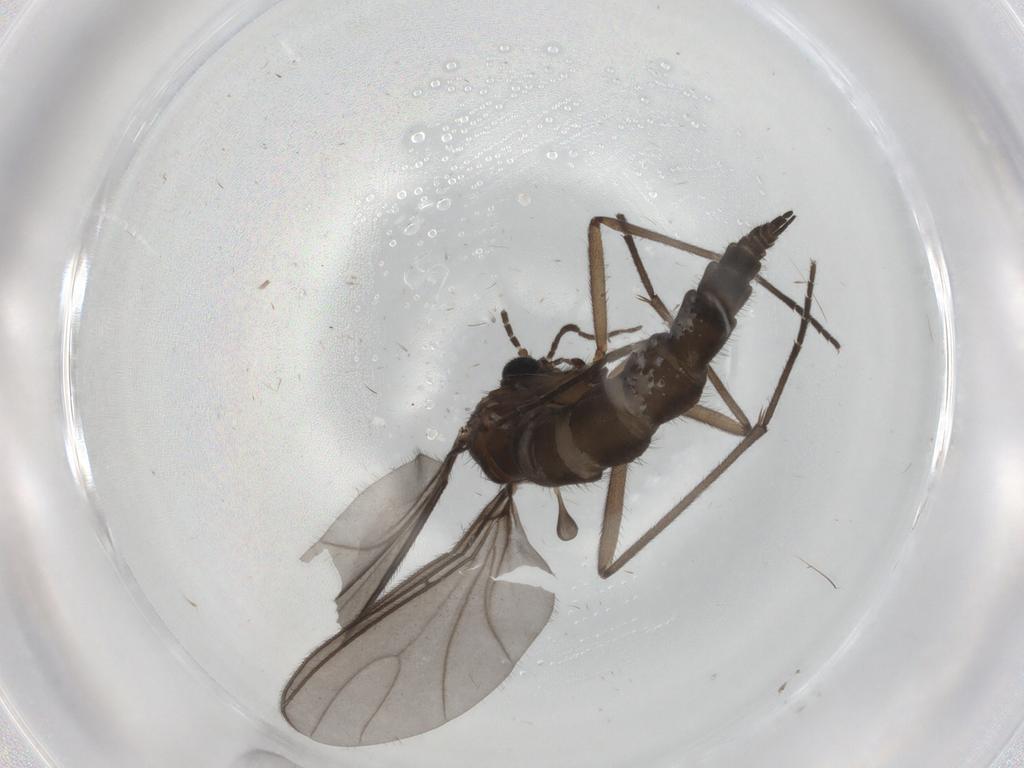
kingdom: Animalia
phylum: Arthropoda
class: Insecta
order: Diptera
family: Sciaridae
